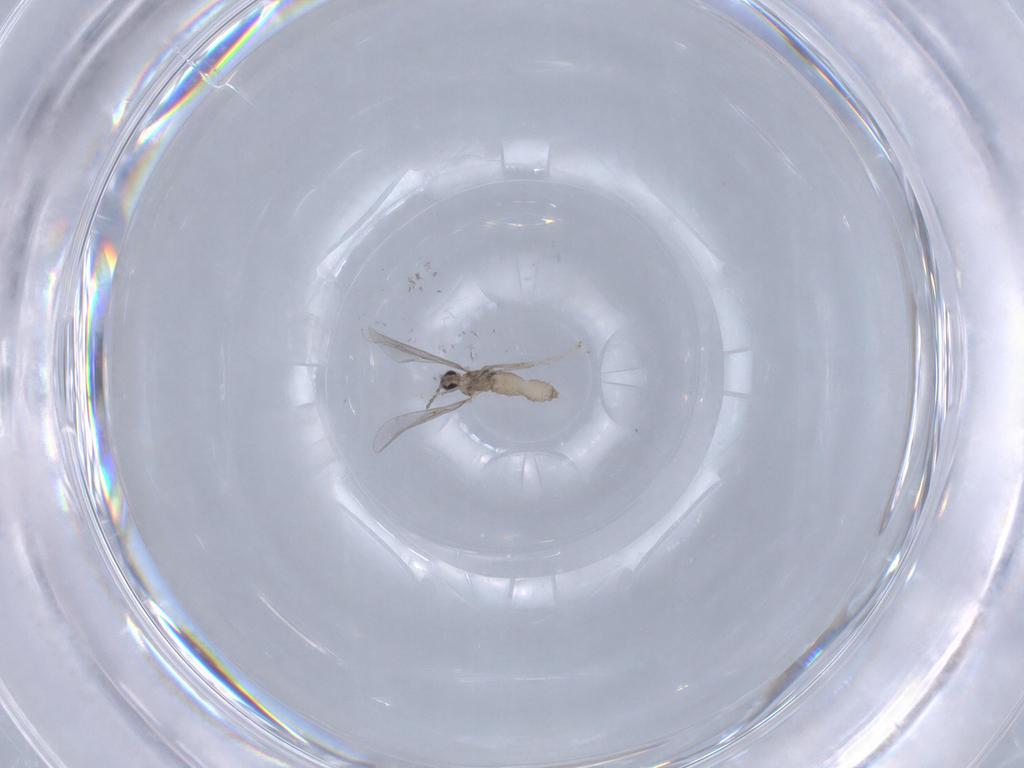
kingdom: Animalia
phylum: Arthropoda
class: Insecta
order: Diptera
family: Cecidomyiidae
